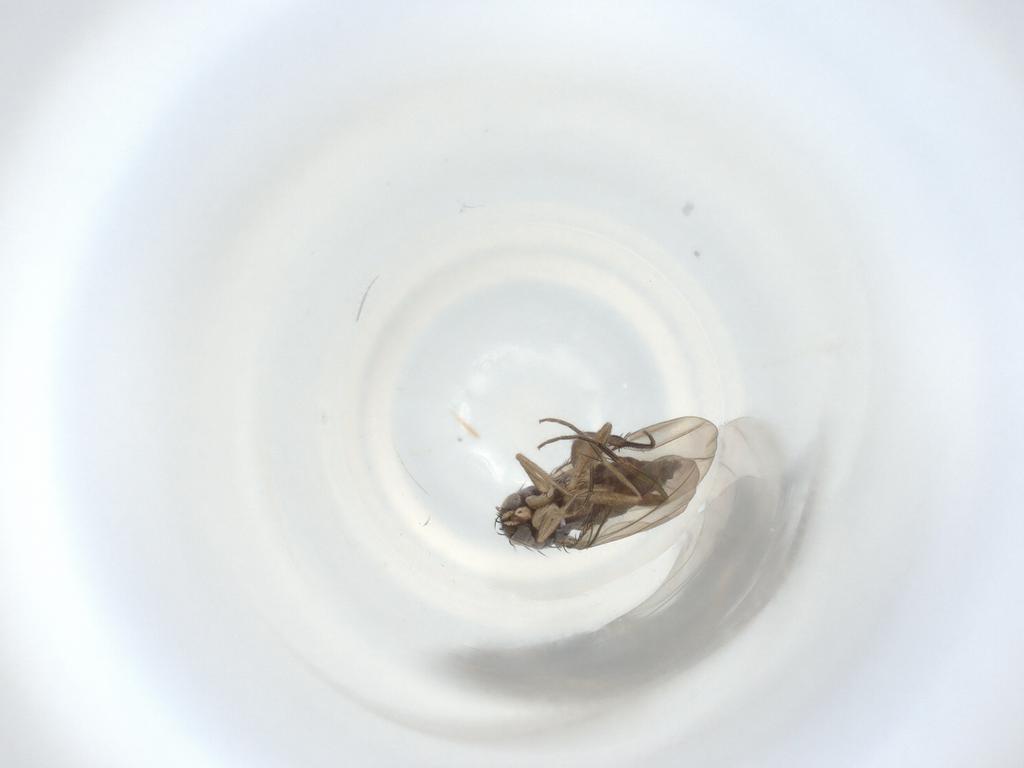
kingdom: Animalia
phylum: Arthropoda
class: Insecta
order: Diptera
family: Phoridae
